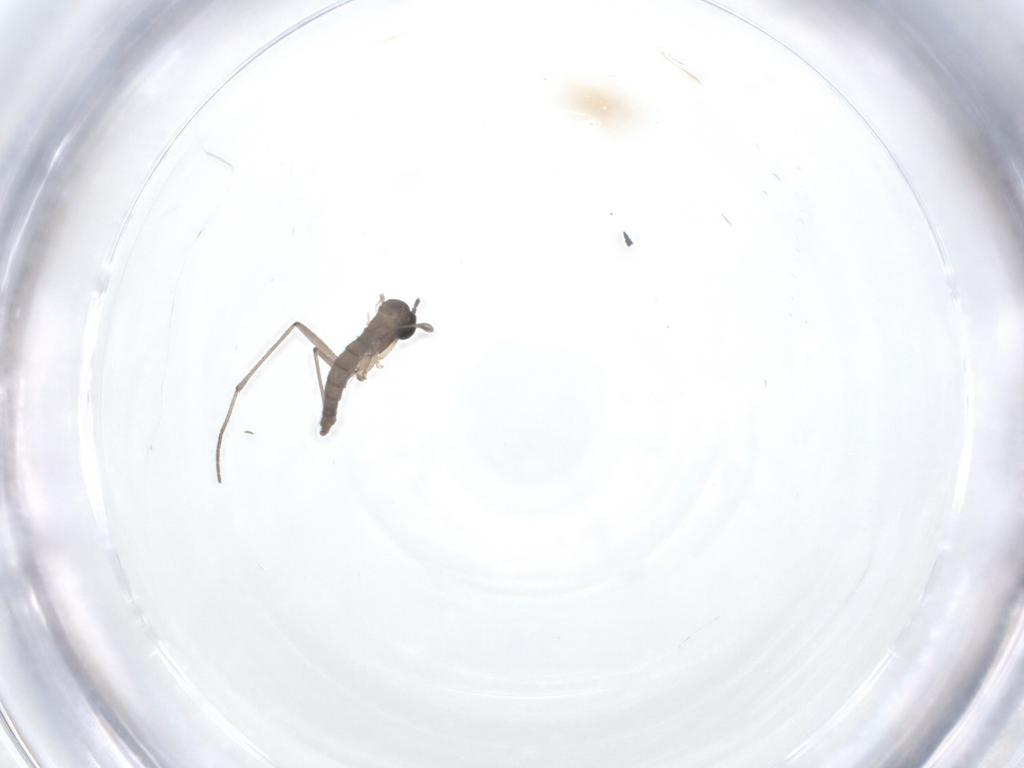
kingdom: Animalia
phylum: Arthropoda
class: Insecta
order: Diptera
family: Sciaridae
